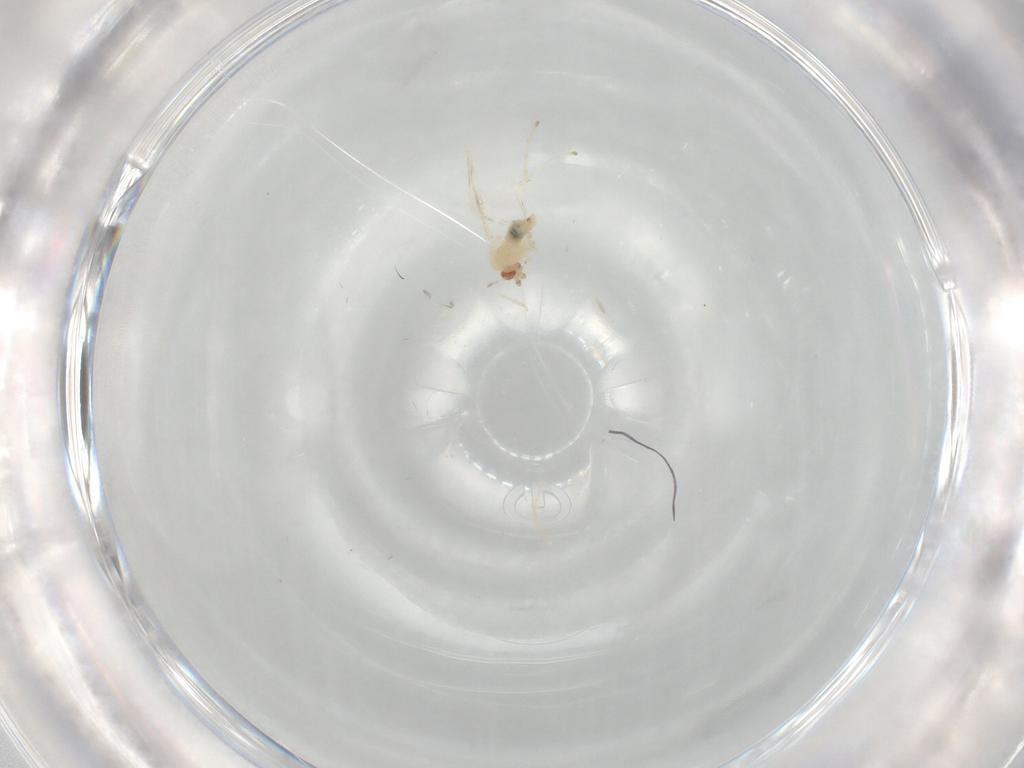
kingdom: Animalia
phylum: Arthropoda
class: Insecta
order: Diptera
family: Cecidomyiidae
